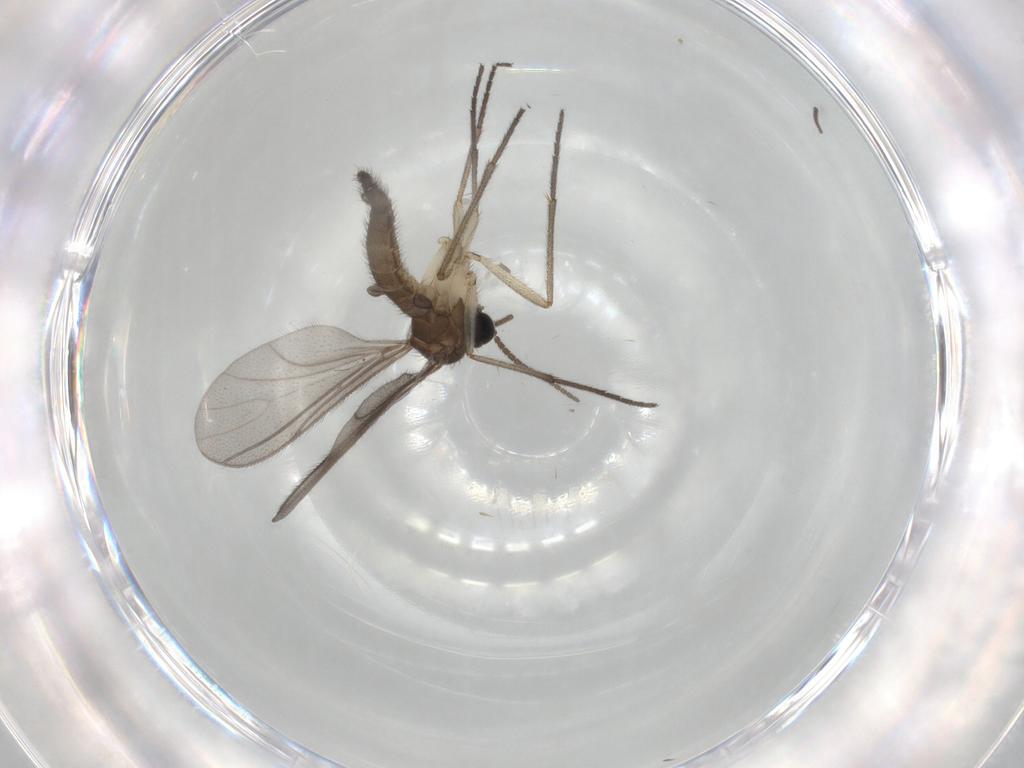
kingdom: Animalia
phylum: Arthropoda
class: Insecta
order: Diptera
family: Sciaridae
